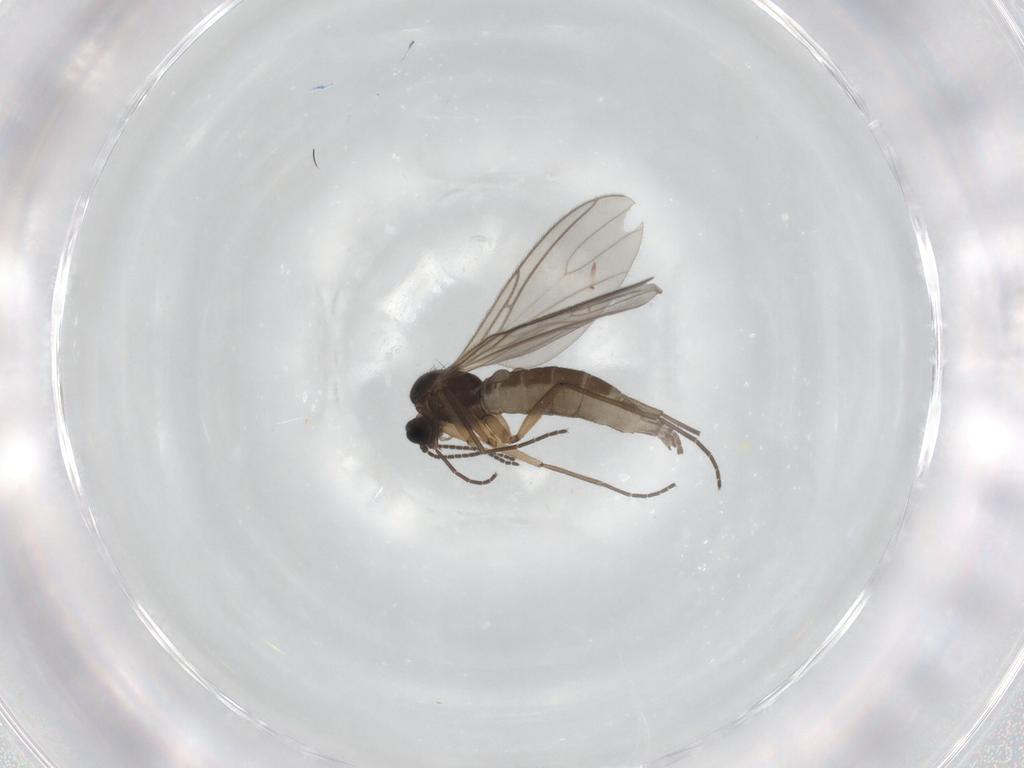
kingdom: Animalia
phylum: Arthropoda
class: Insecta
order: Diptera
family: Sciaridae
